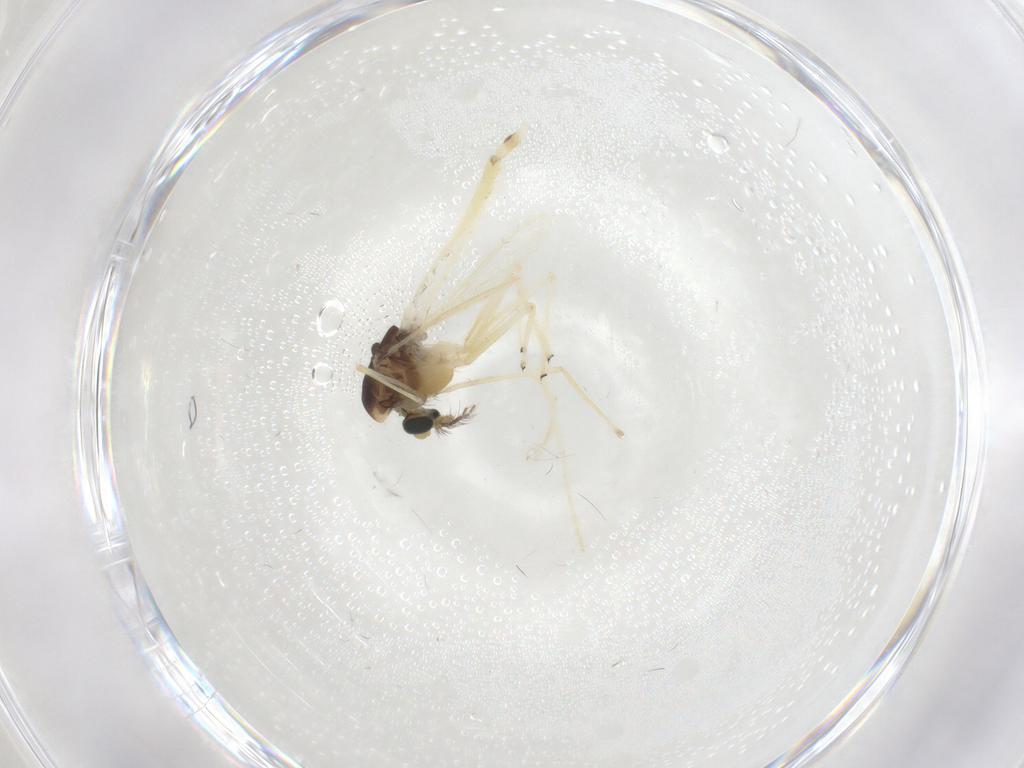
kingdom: Animalia
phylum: Arthropoda
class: Insecta
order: Diptera
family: Chironomidae
